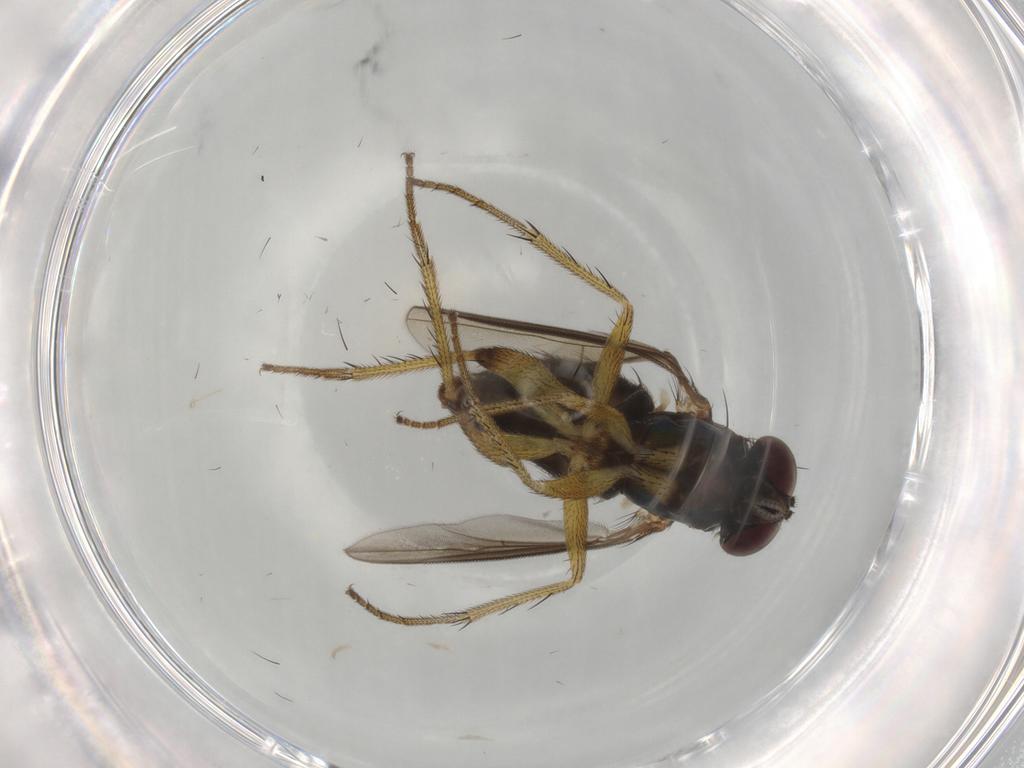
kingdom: Animalia
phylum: Arthropoda
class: Insecta
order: Diptera
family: Dolichopodidae
